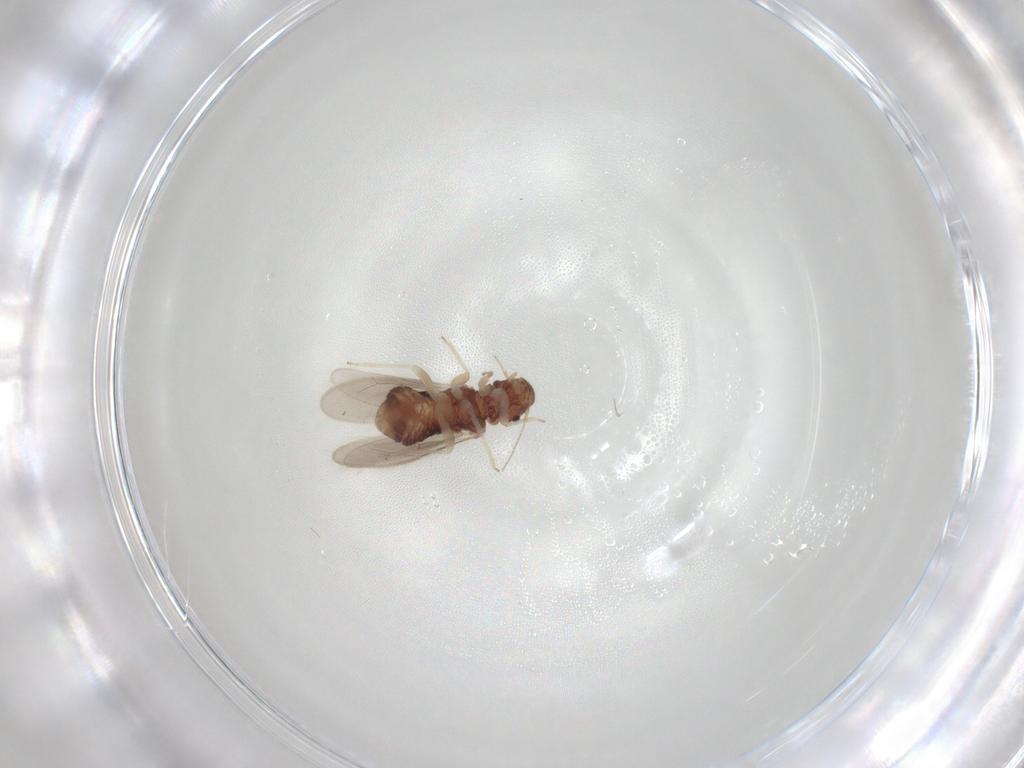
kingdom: Animalia
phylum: Arthropoda
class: Insecta
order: Psocodea
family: Archipsocidae
